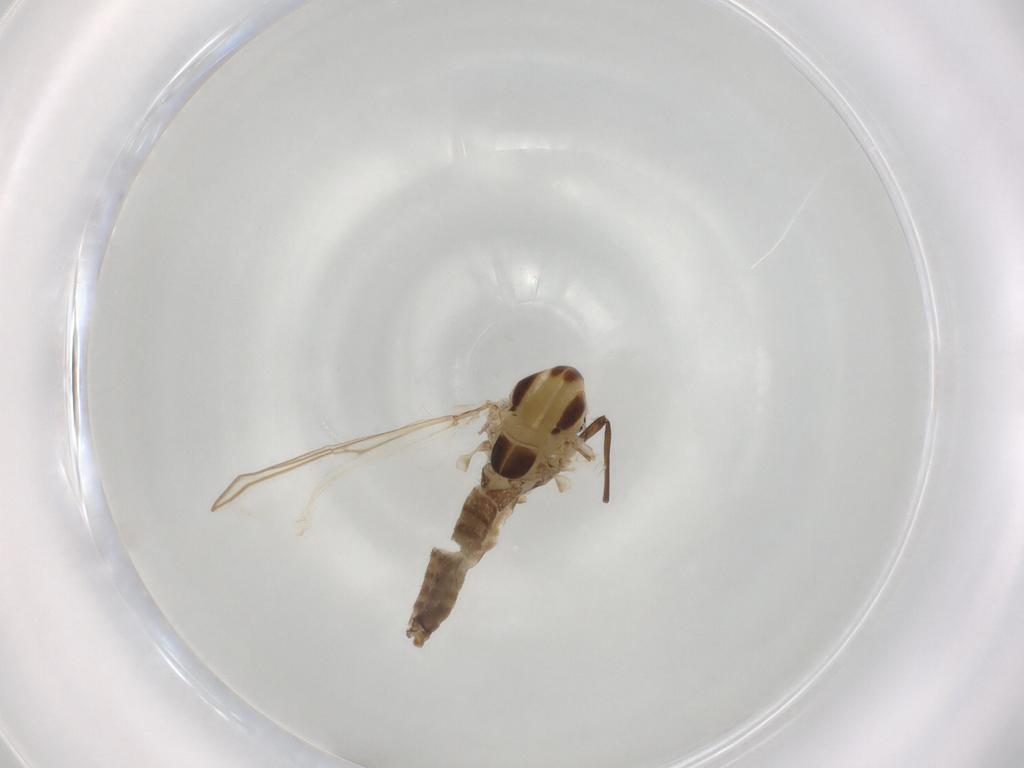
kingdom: Animalia
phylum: Arthropoda
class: Insecta
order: Diptera
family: Chironomidae
